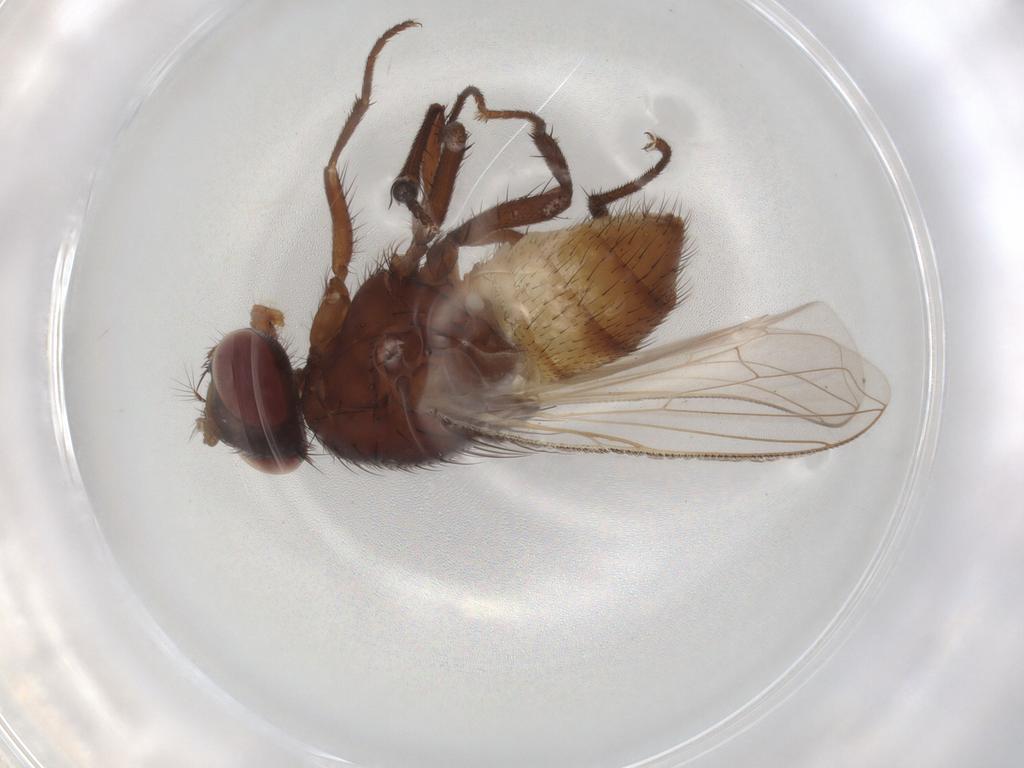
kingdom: Animalia
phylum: Arthropoda
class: Insecta
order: Diptera
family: Muscidae
